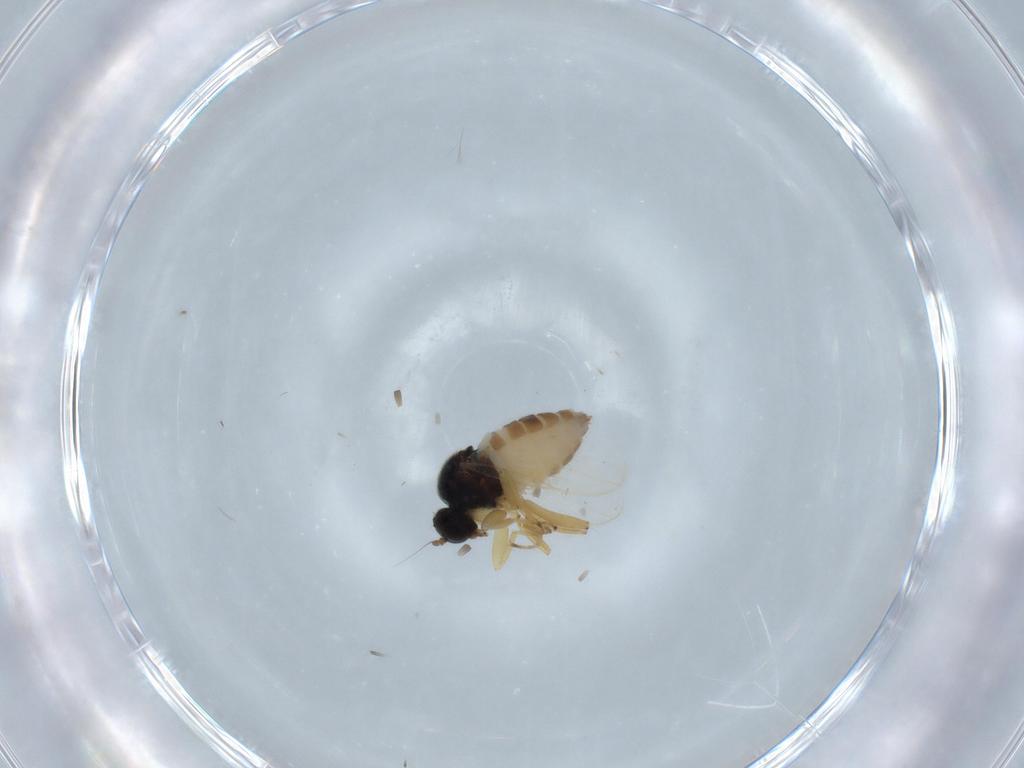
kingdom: Animalia
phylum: Arthropoda
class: Insecta
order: Diptera
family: Hybotidae
